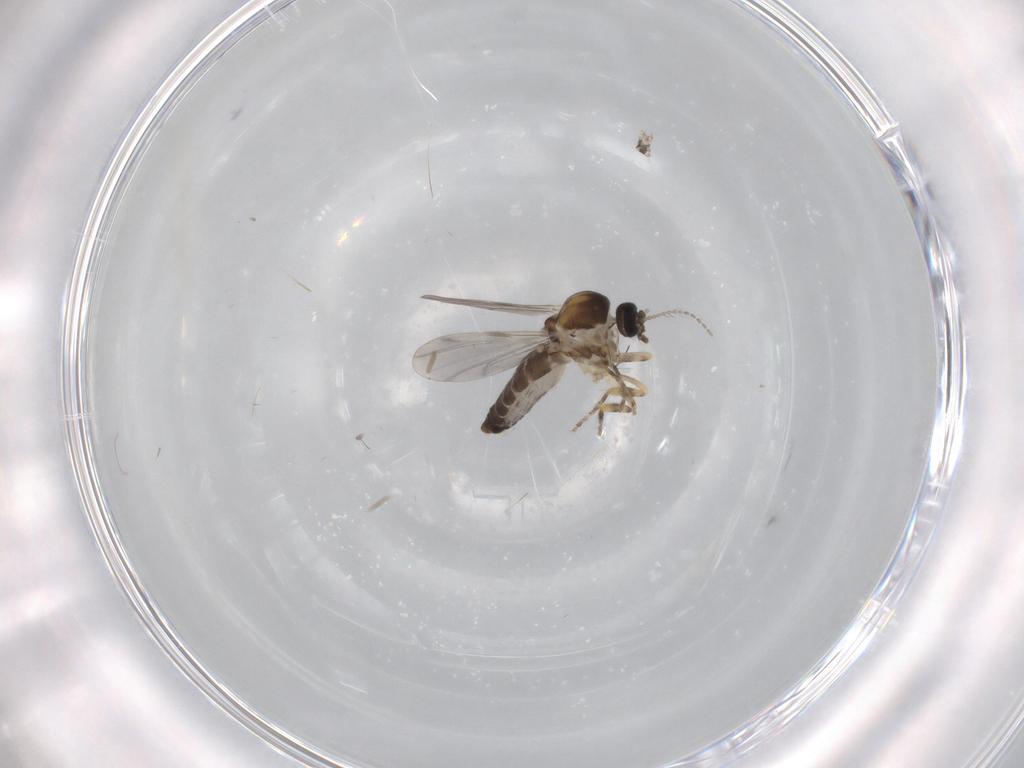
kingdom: Animalia
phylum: Arthropoda
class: Insecta
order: Diptera
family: Ceratopogonidae
